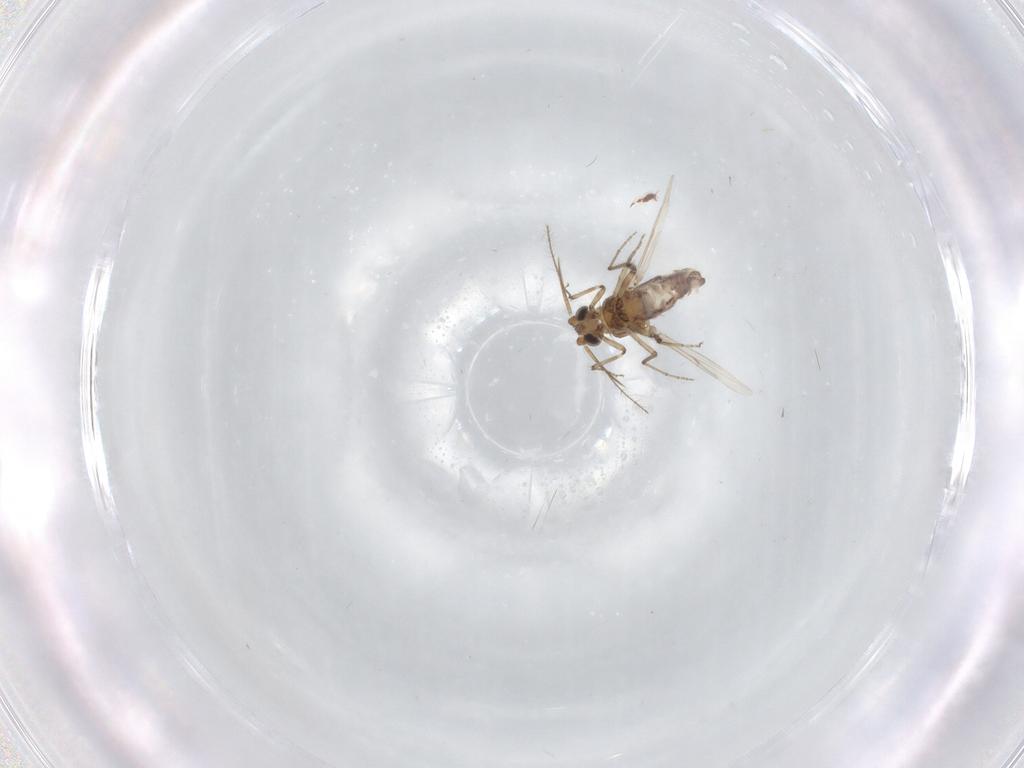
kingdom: Animalia
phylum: Arthropoda
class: Insecta
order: Diptera
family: Ceratopogonidae
